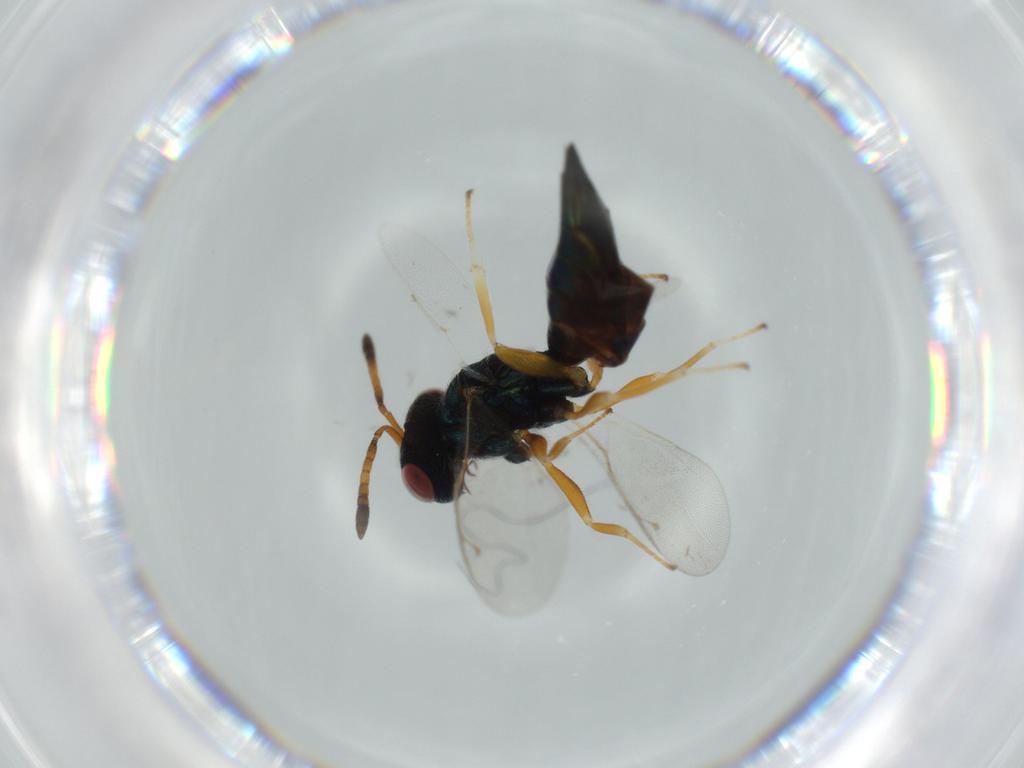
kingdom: Animalia
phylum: Arthropoda
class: Insecta
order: Hymenoptera
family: Pteromalidae
